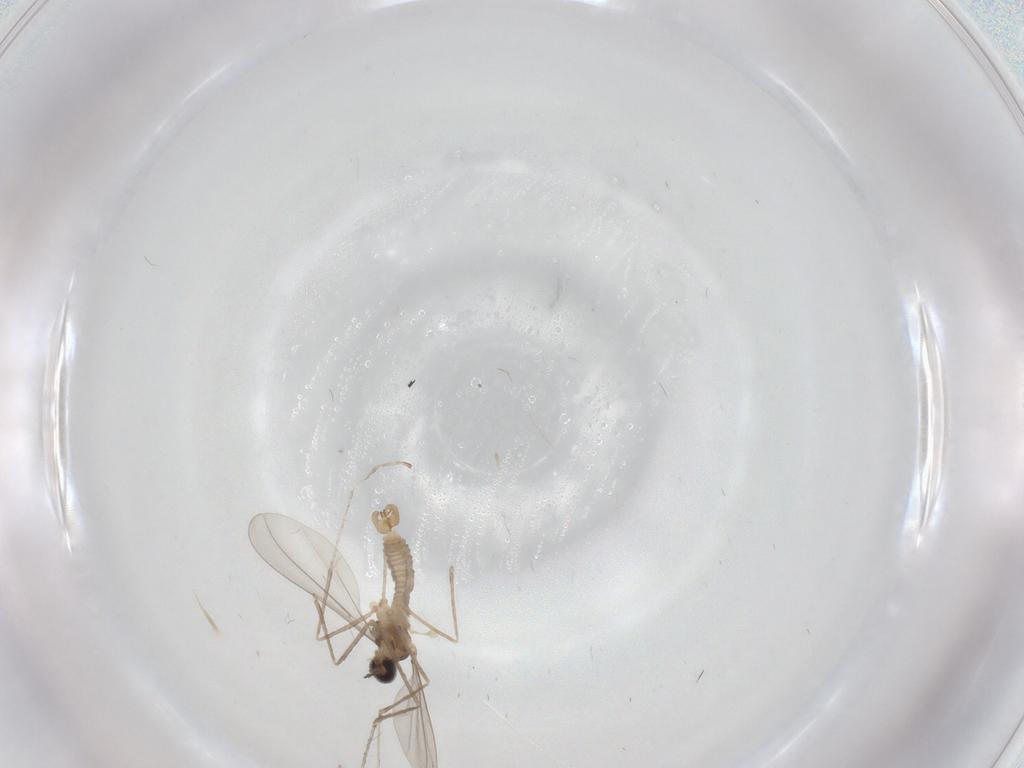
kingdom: Animalia
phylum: Arthropoda
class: Insecta
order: Diptera
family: Cecidomyiidae
